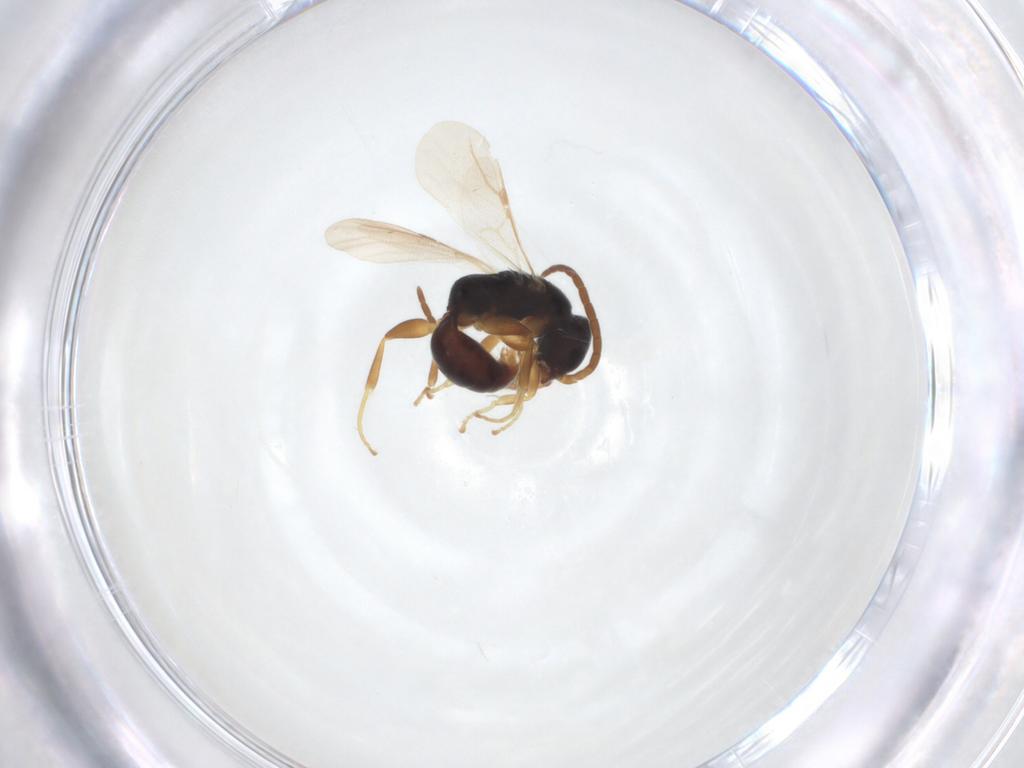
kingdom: Animalia
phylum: Arthropoda
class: Insecta
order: Hymenoptera
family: Bethylidae
